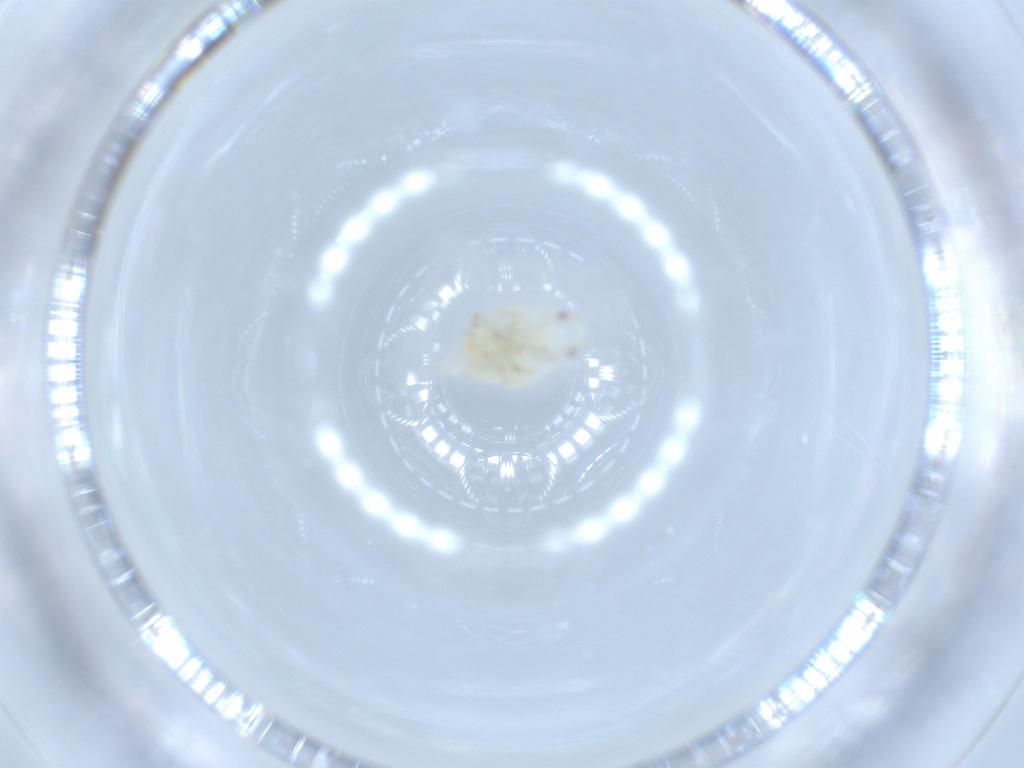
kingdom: Animalia
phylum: Arthropoda
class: Insecta
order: Hemiptera
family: Flatidae
